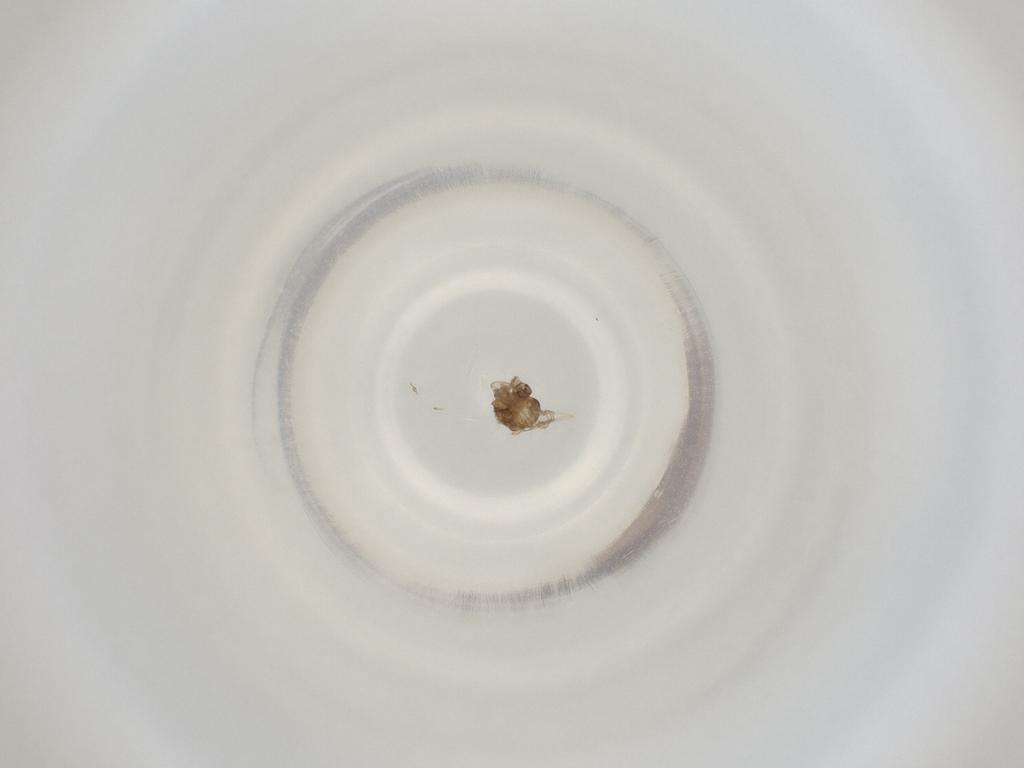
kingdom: Animalia
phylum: Arthropoda
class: Insecta
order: Diptera
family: Cecidomyiidae
